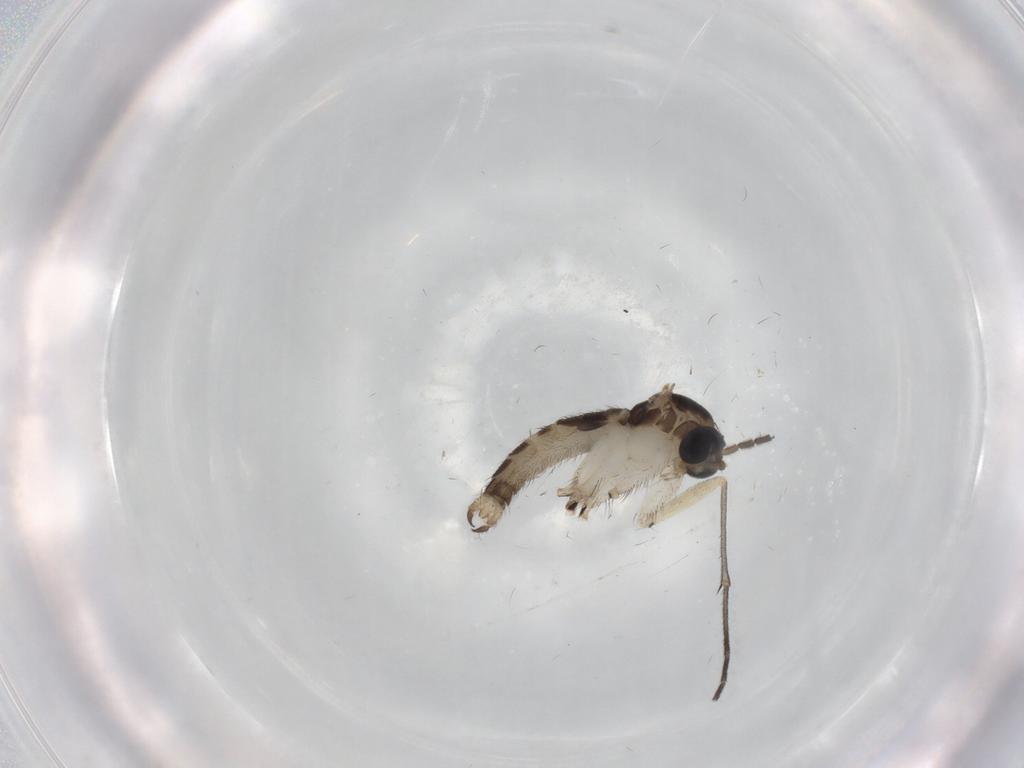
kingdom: Animalia
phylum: Arthropoda
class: Insecta
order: Diptera
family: Sciaridae
